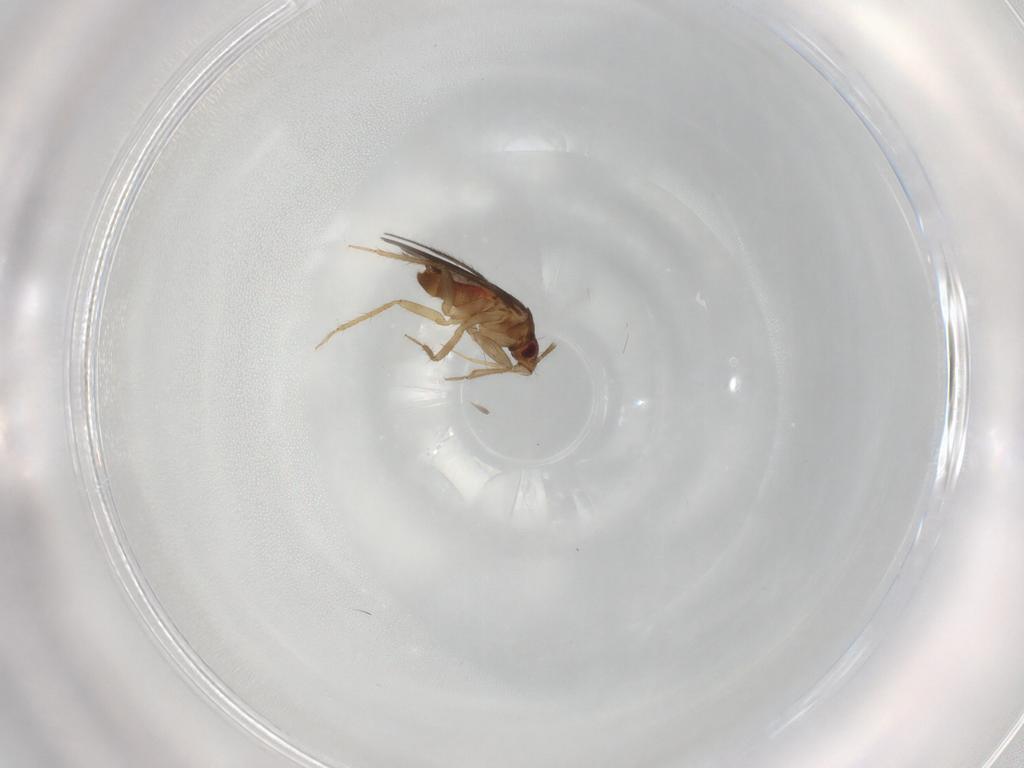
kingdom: Animalia
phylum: Arthropoda
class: Insecta
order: Hemiptera
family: Ceratocombidae
